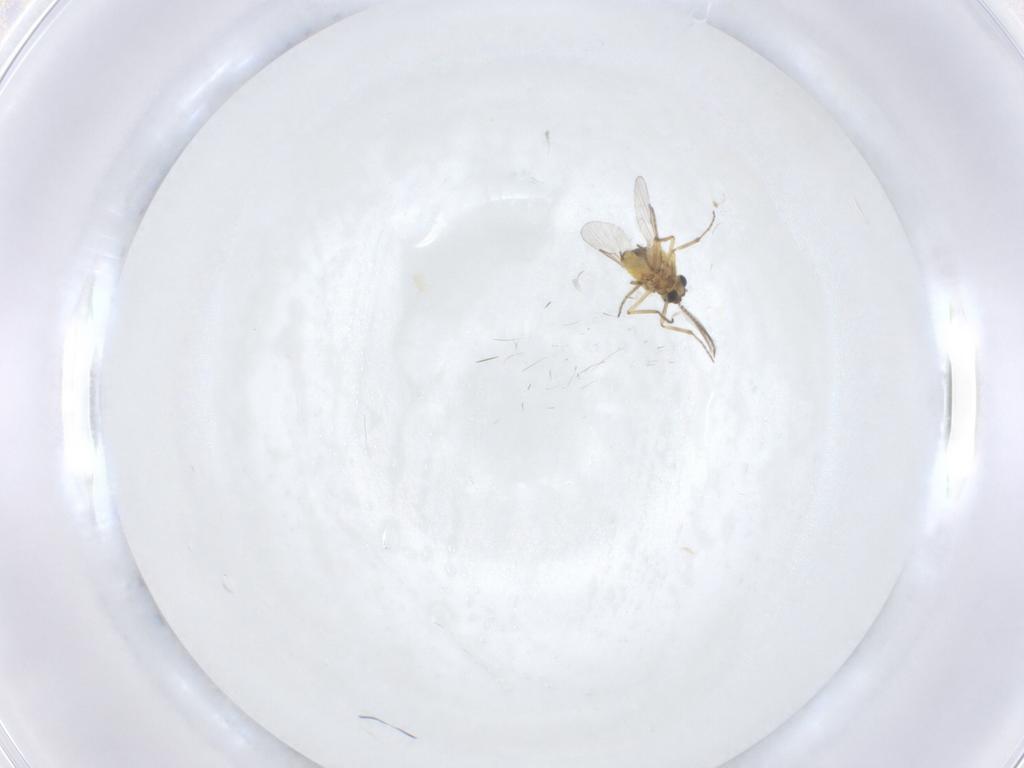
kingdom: Animalia
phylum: Arthropoda
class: Insecta
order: Diptera
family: Ceratopogonidae
